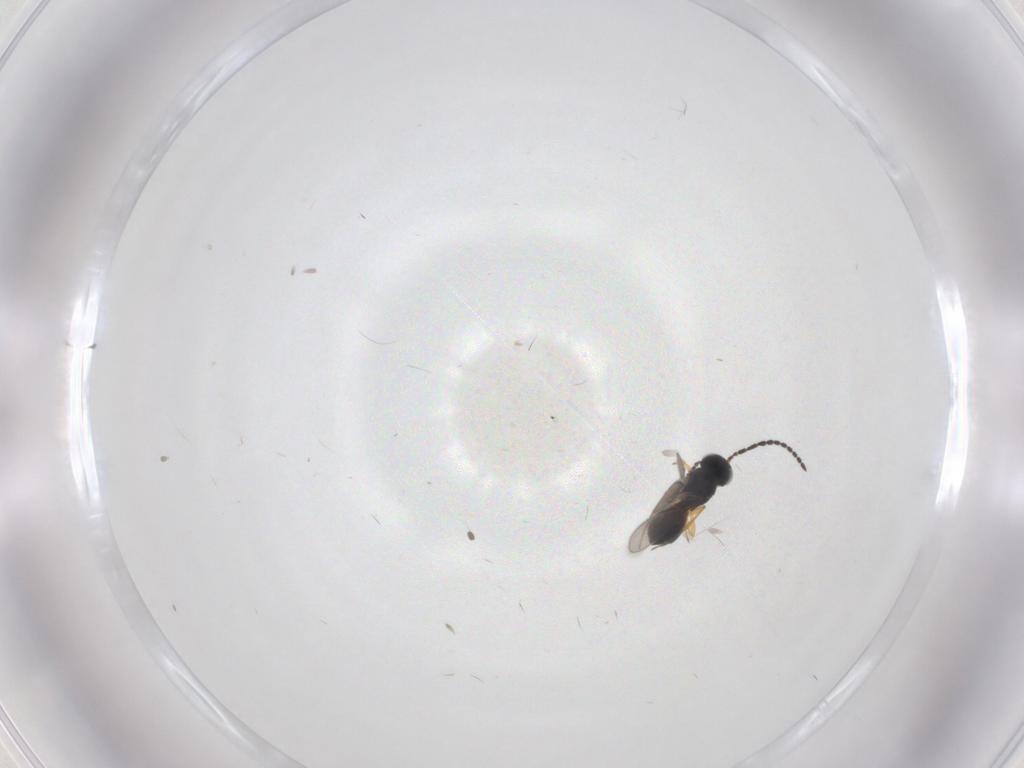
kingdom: Animalia
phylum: Arthropoda
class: Insecta
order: Hymenoptera
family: Scelionidae
